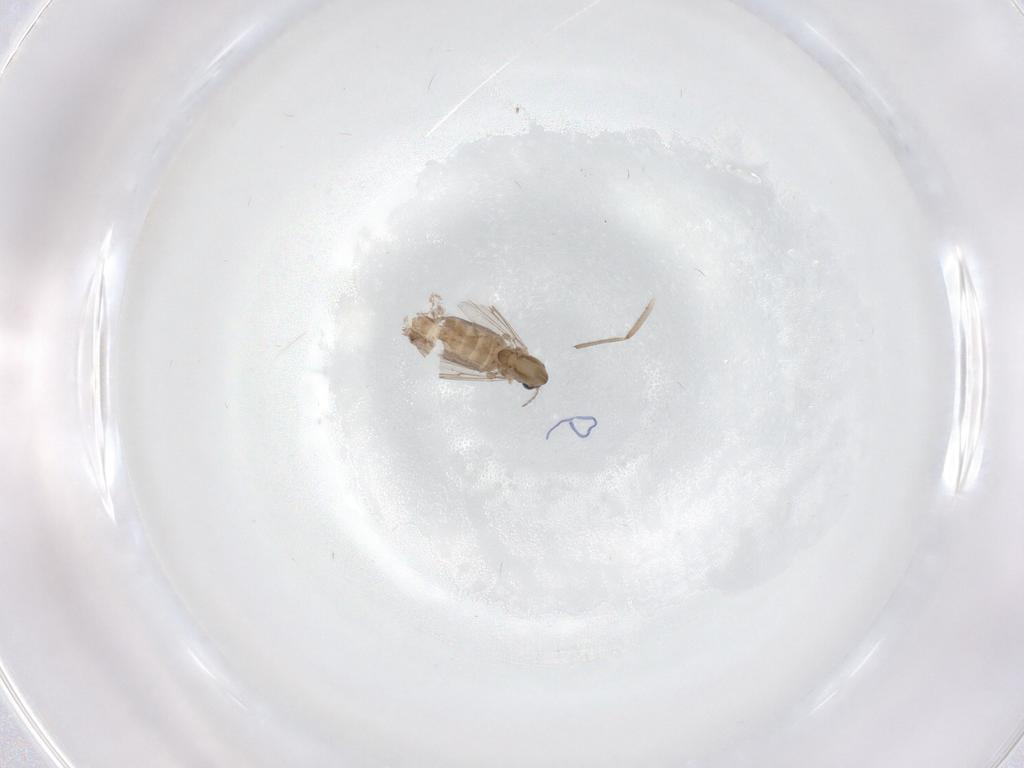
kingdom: Animalia
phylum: Arthropoda
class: Insecta
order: Diptera
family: Chironomidae
